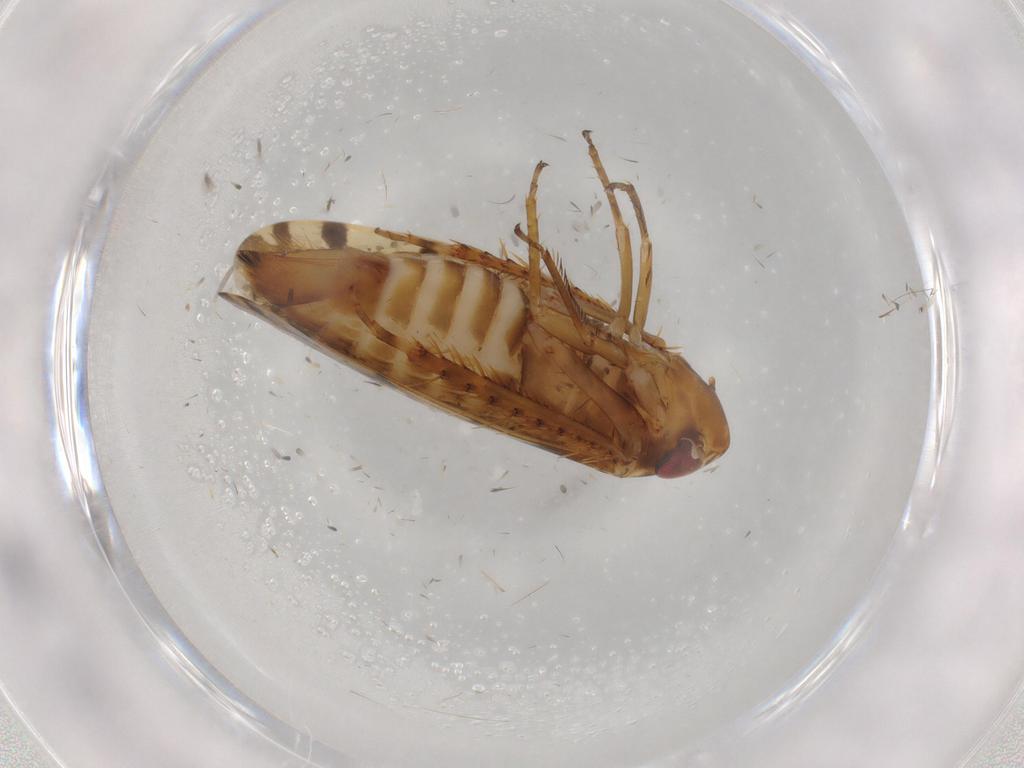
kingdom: Animalia
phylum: Arthropoda
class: Insecta
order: Hemiptera
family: Cicadellidae
